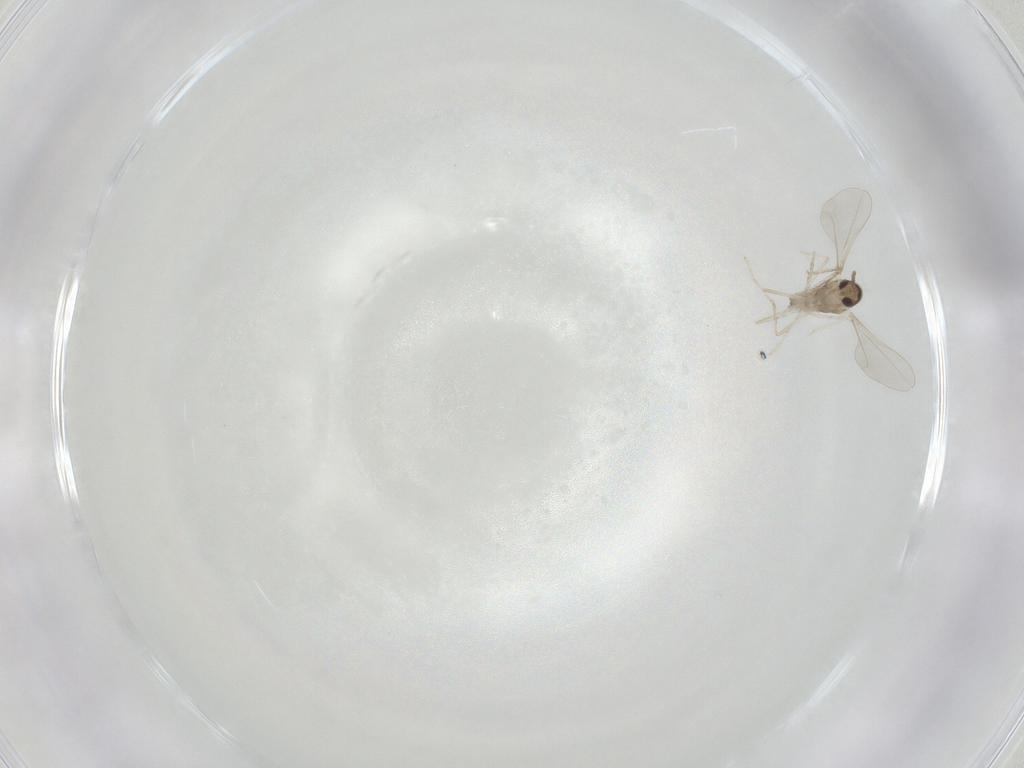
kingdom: Animalia
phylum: Arthropoda
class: Insecta
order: Diptera
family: Cecidomyiidae
